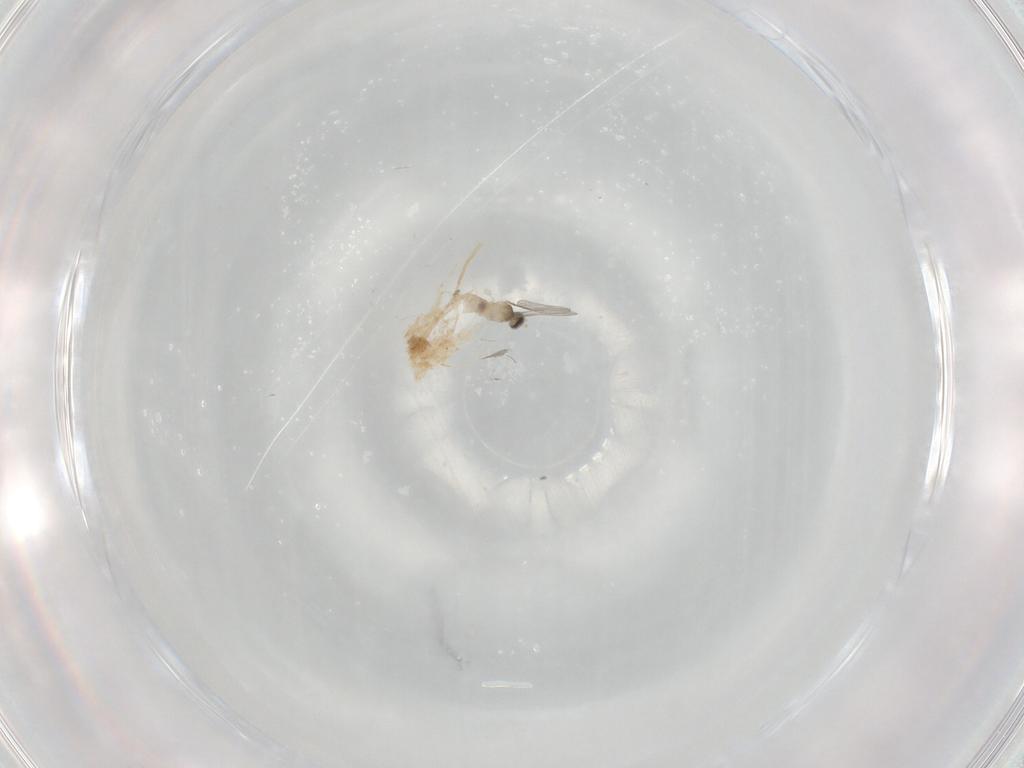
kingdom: Animalia
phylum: Arthropoda
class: Insecta
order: Diptera
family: Cecidomyiidae
